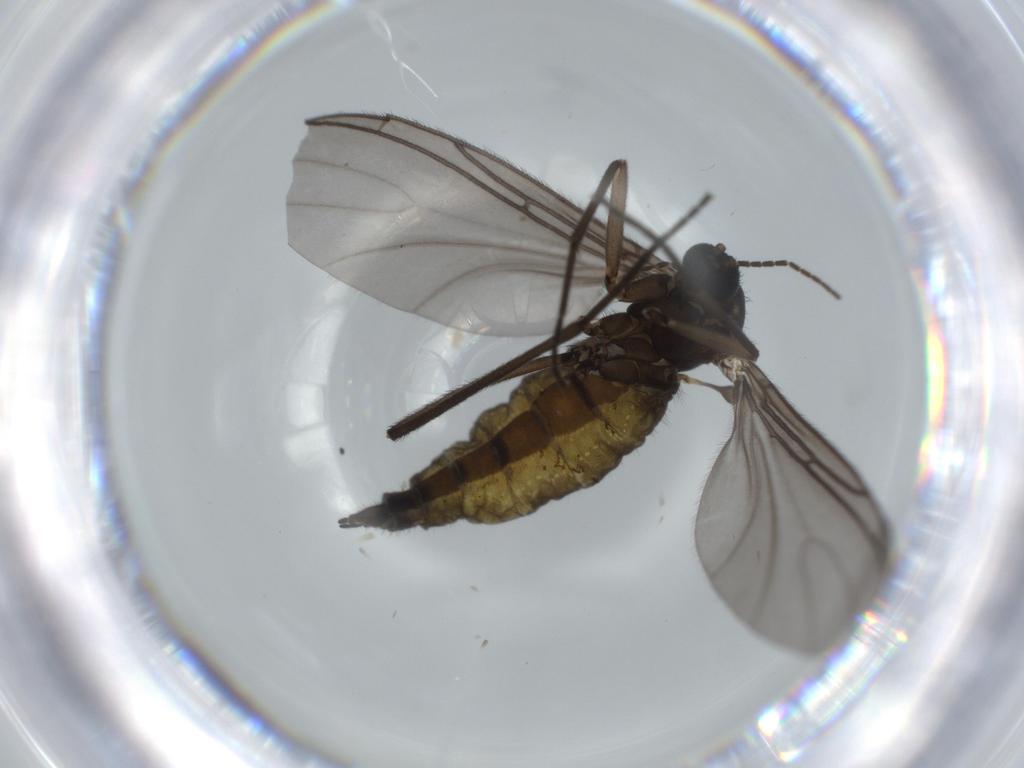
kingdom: Animalia
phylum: Arthropoda
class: Insecta
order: Diptera
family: Sciaridae
